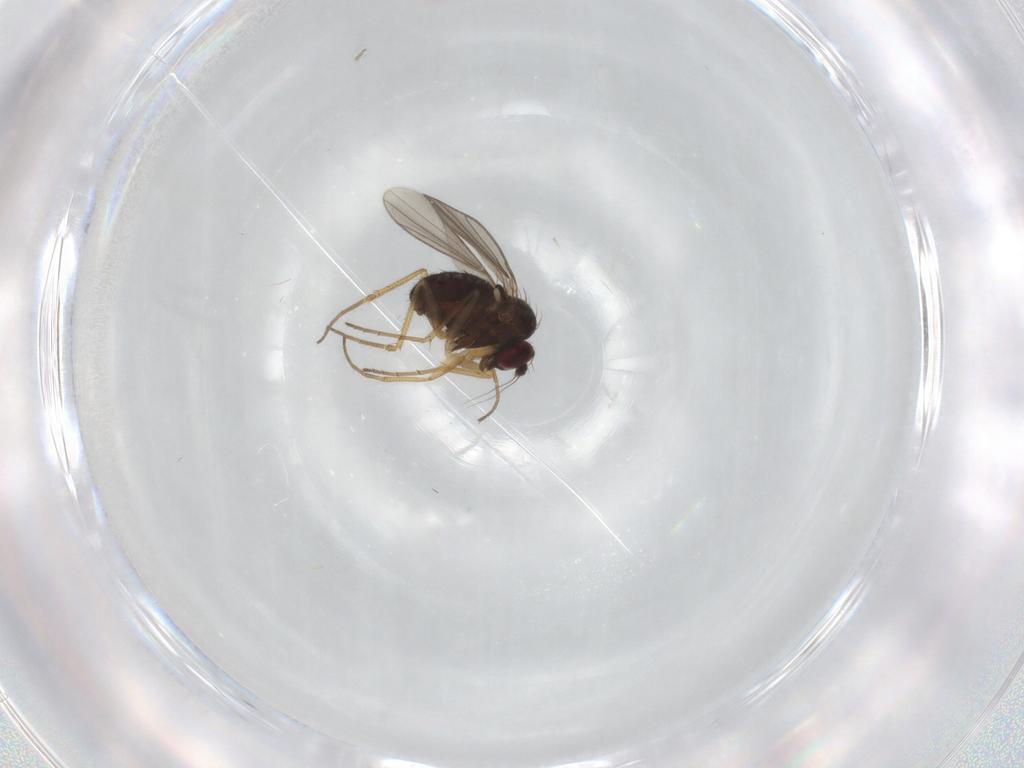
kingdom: Animalia
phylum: Arthropoda
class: Insecta
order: Diptera
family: Dolichopodidae
